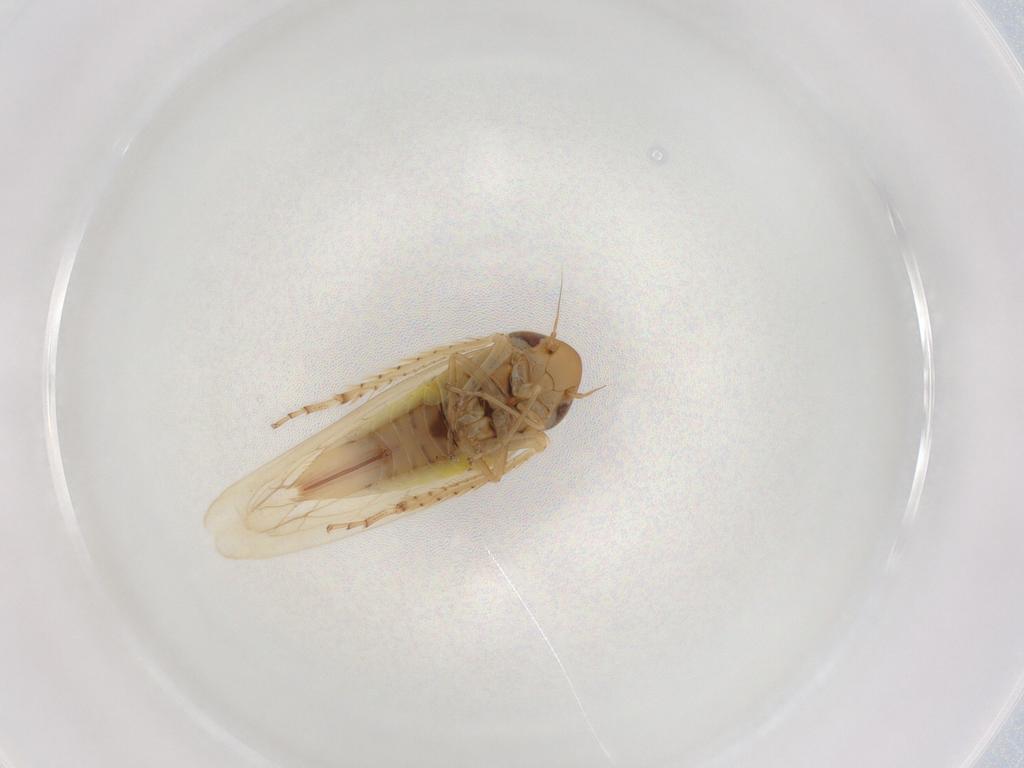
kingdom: Animalia
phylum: Arthropoda
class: Insecta
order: Hemiptera
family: Cicadellidae
